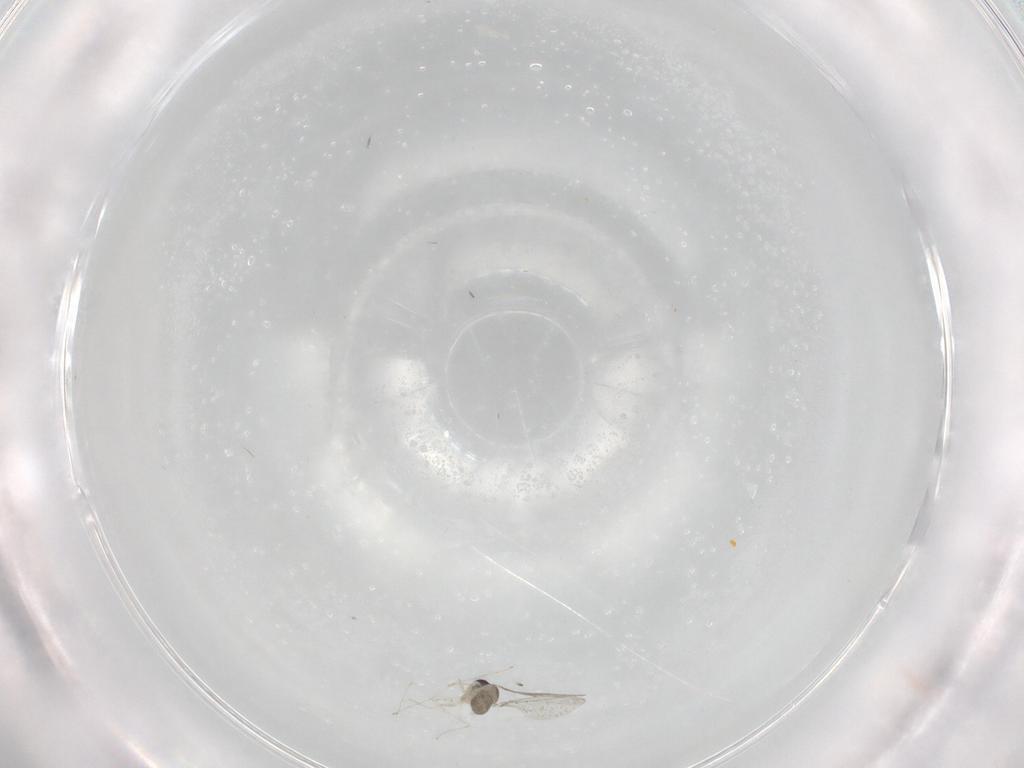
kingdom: Animalia
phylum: Arthropoda
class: Insecta
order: Diptera
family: Cecidomyiidae
